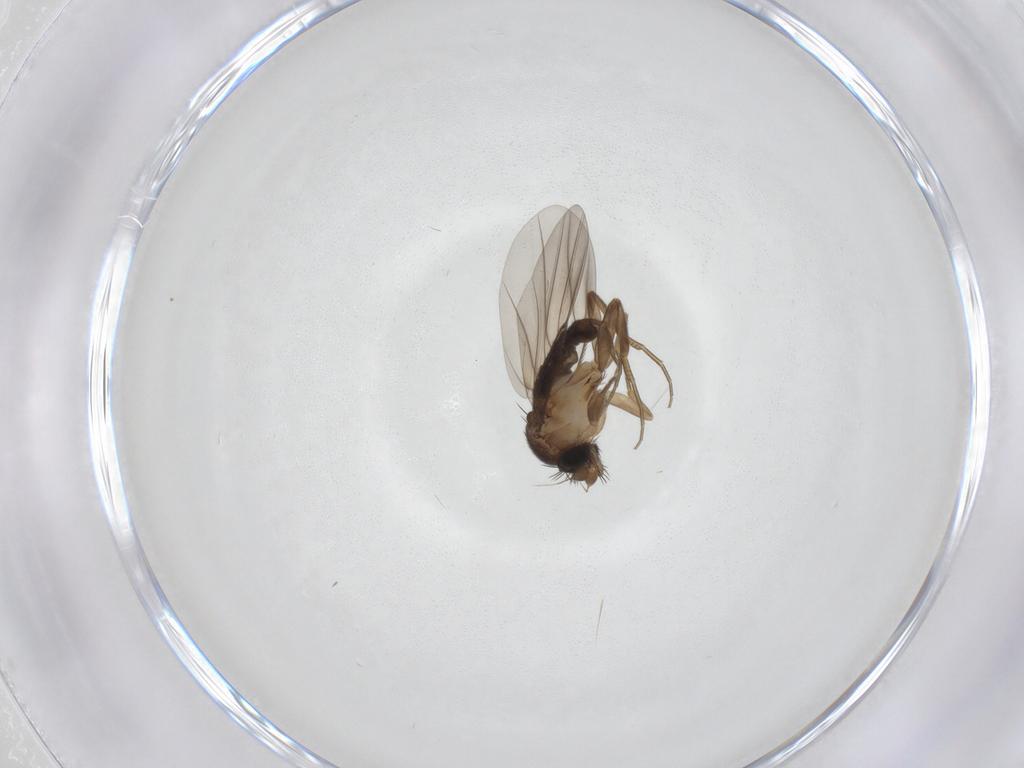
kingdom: Animalia
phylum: Arthropoda
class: Insecta
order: Diptera
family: Phoridae
